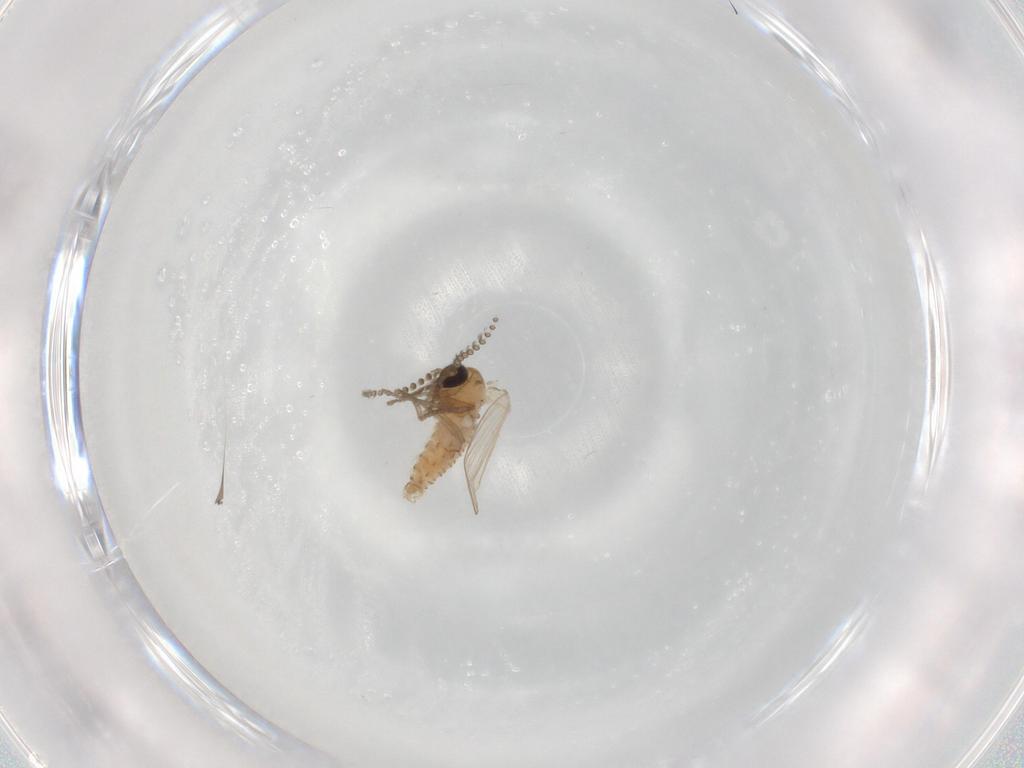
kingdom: Animalia
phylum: Arthropoda
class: Insecta
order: Diptera
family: Psychodidae
